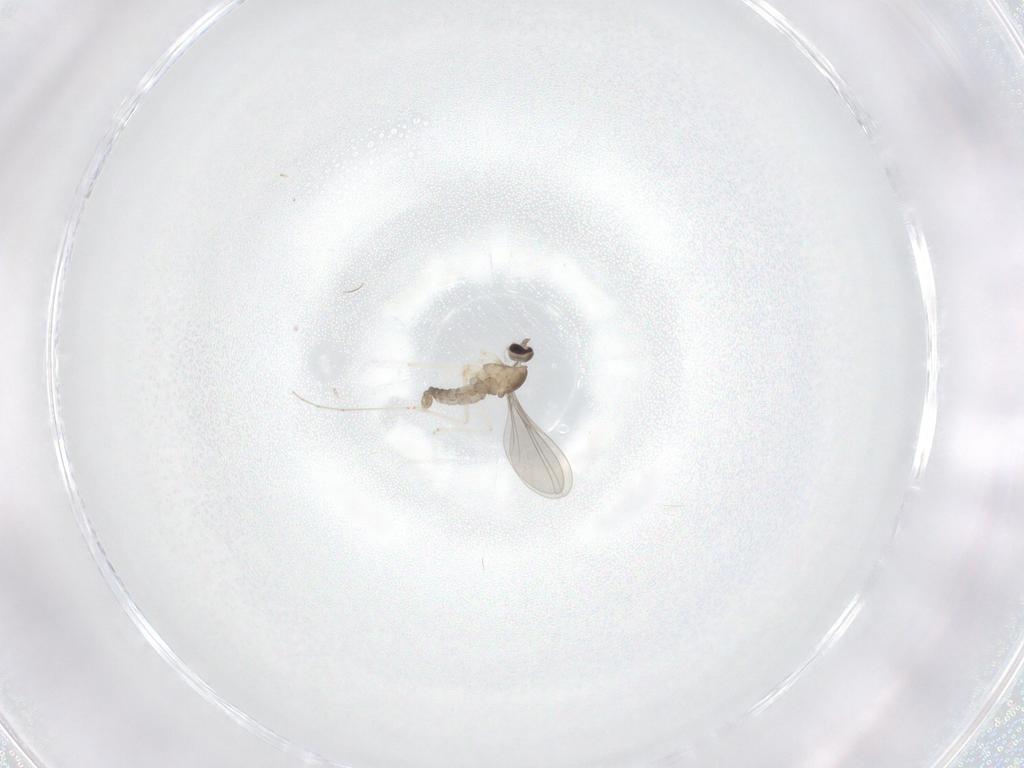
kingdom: Animalia
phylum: Arthropoda
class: Insecta
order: Diptera
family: Cecidomyiidae
